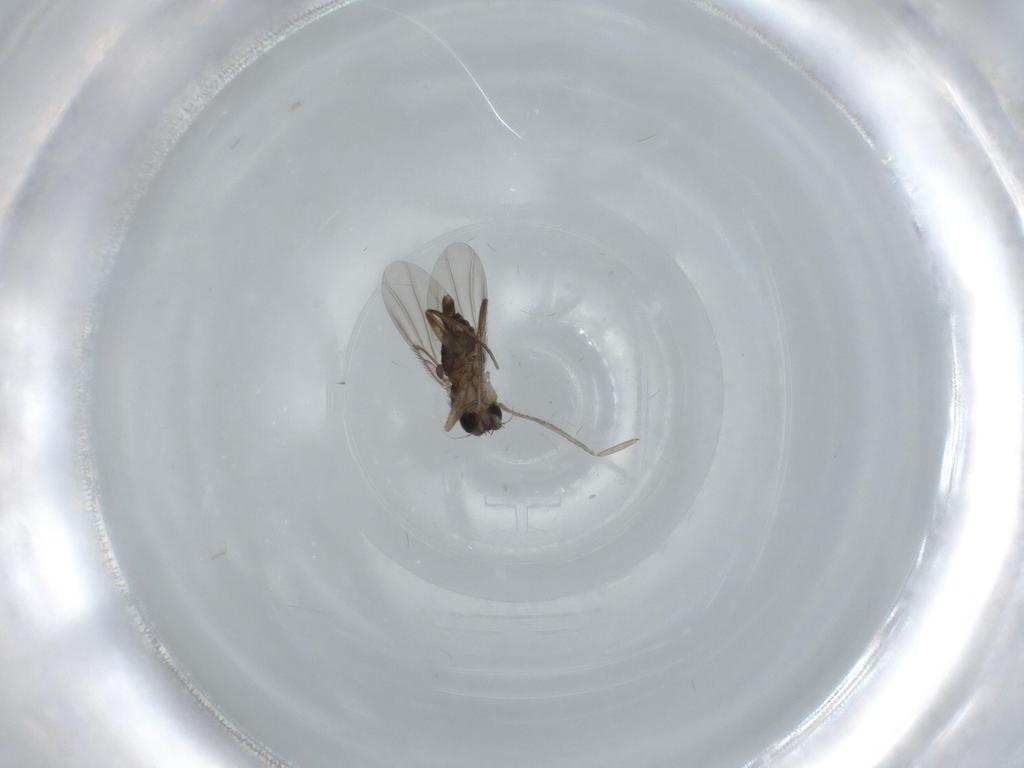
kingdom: Animalia
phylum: Arthropoda
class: Insecta
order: Diptera
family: Phoridae
